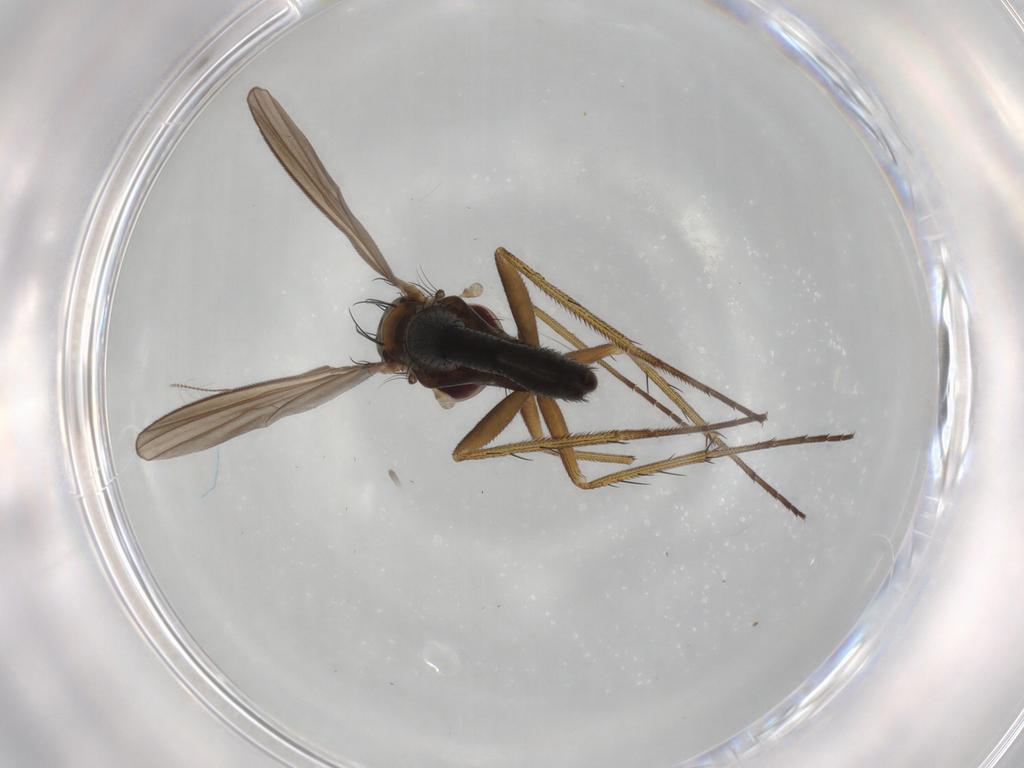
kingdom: Animalia
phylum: Arthropoda
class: Insecta
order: Diptera
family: Dolichopodidae
